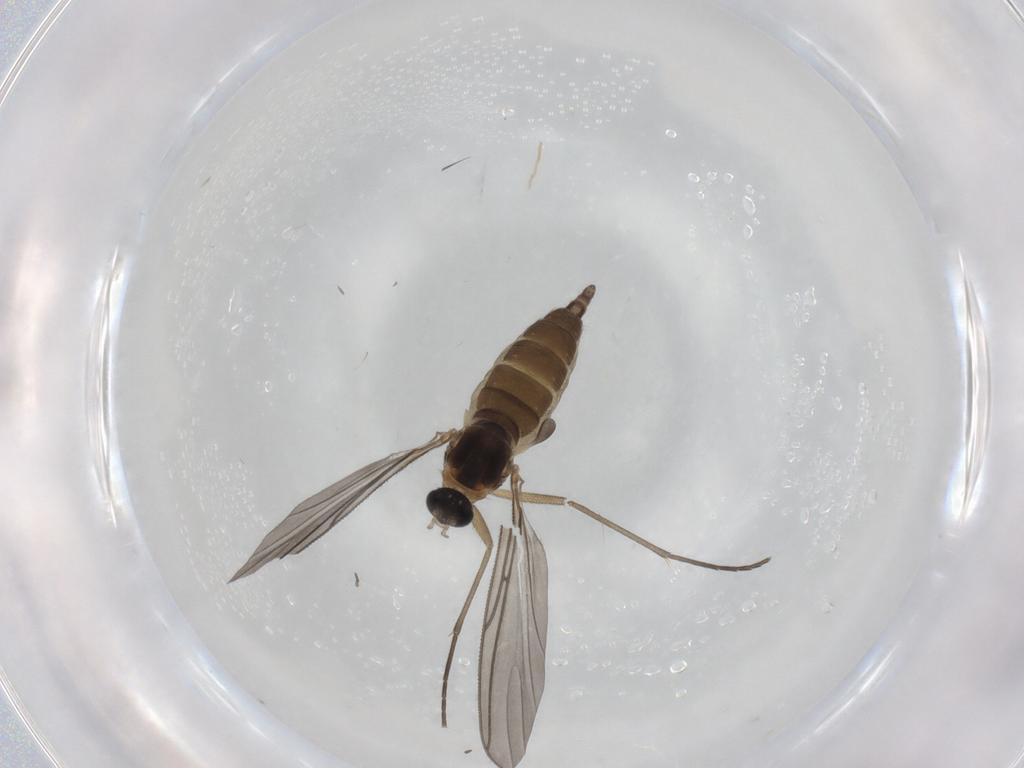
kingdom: Animalia
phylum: Arthropoda
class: Insecta
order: Diptera
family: Sciaridae
